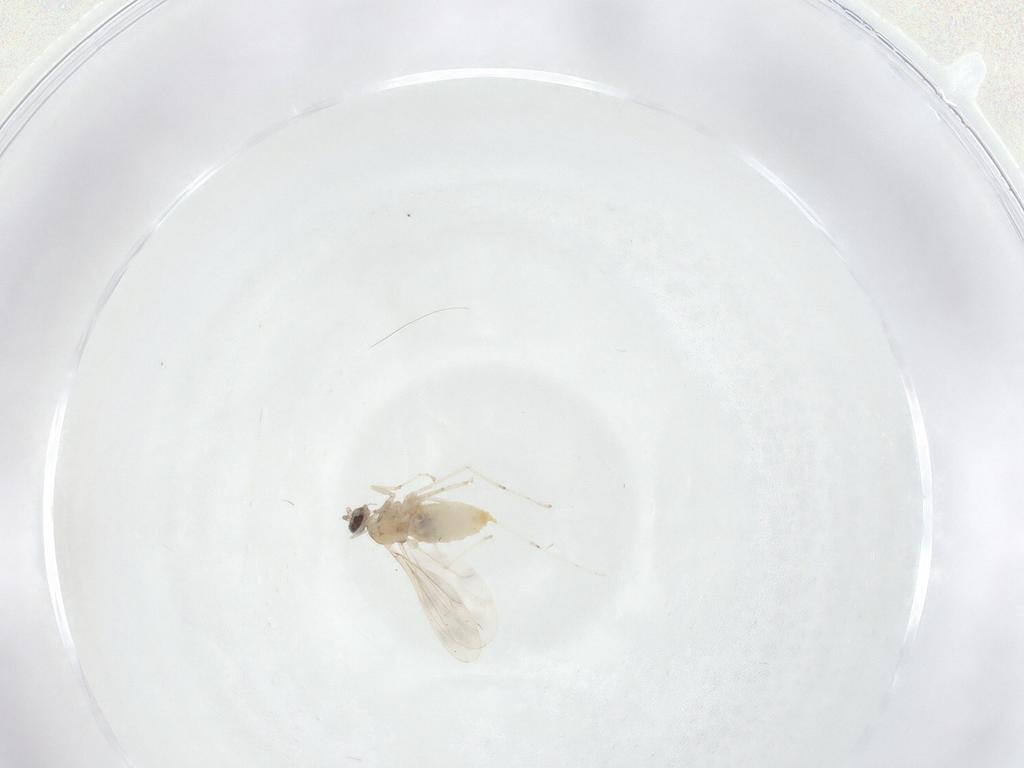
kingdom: Animalia
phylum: Arthropoda
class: Insecta
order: Diptera
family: Cecidomyiidae
